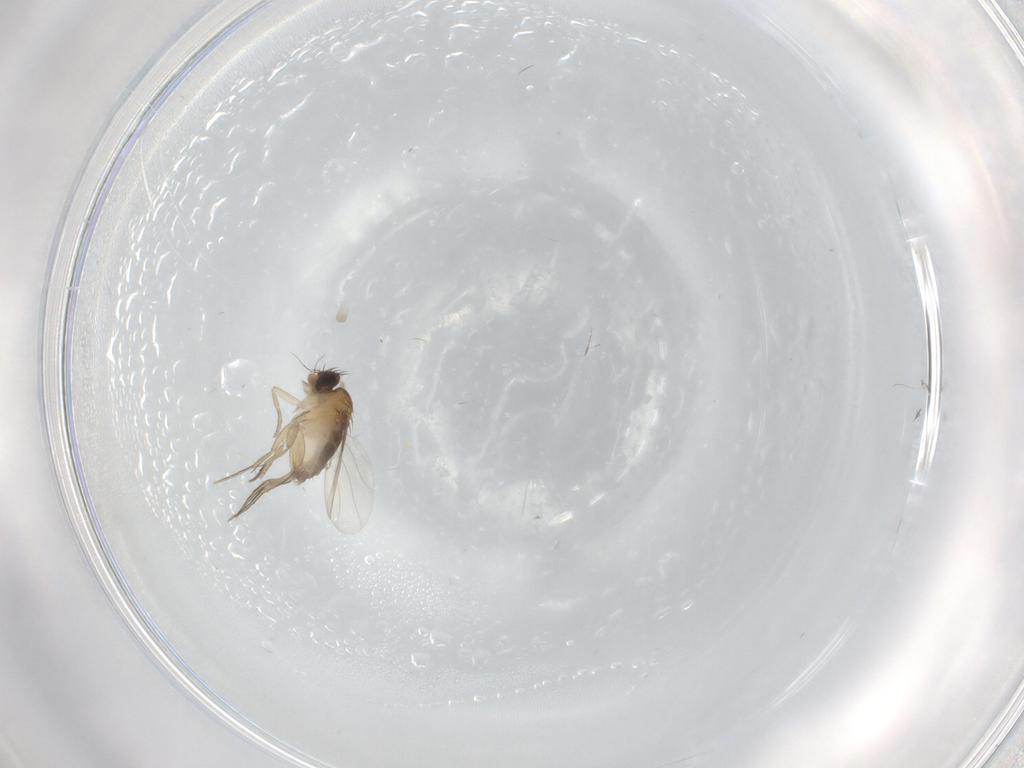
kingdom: Animalia
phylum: Arthropoda
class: Insecta
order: Diptera
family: Phoridae
